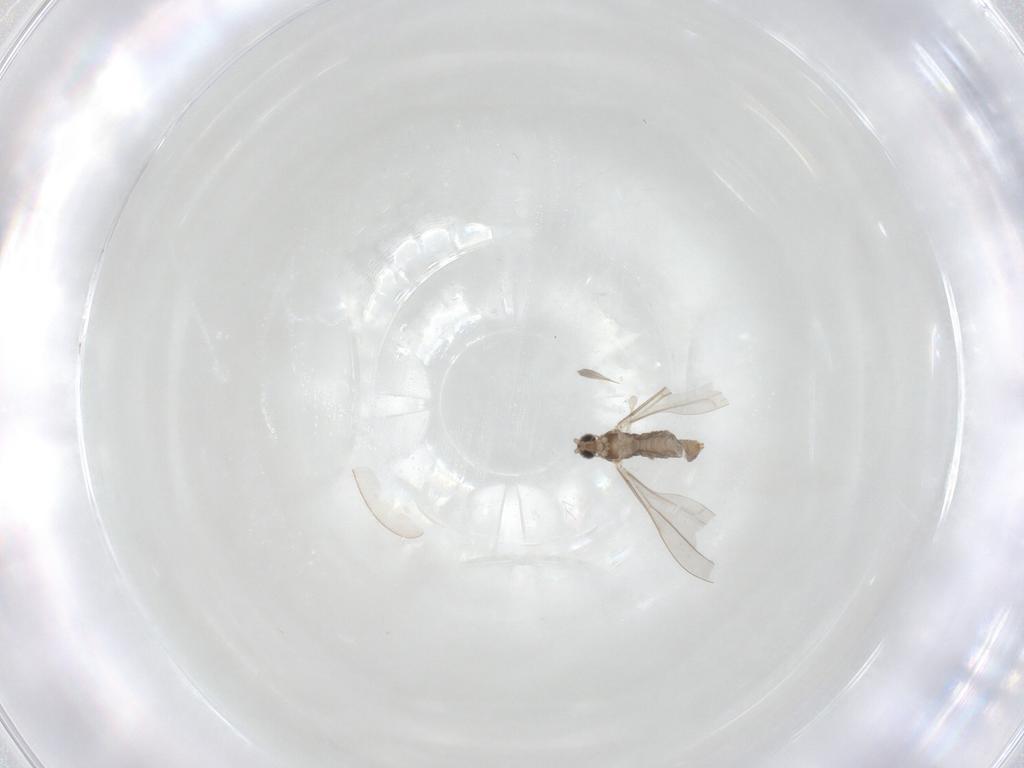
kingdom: Animalia
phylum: Arthropoda
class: Insecta
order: Diptera
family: Cecidomyiidae
